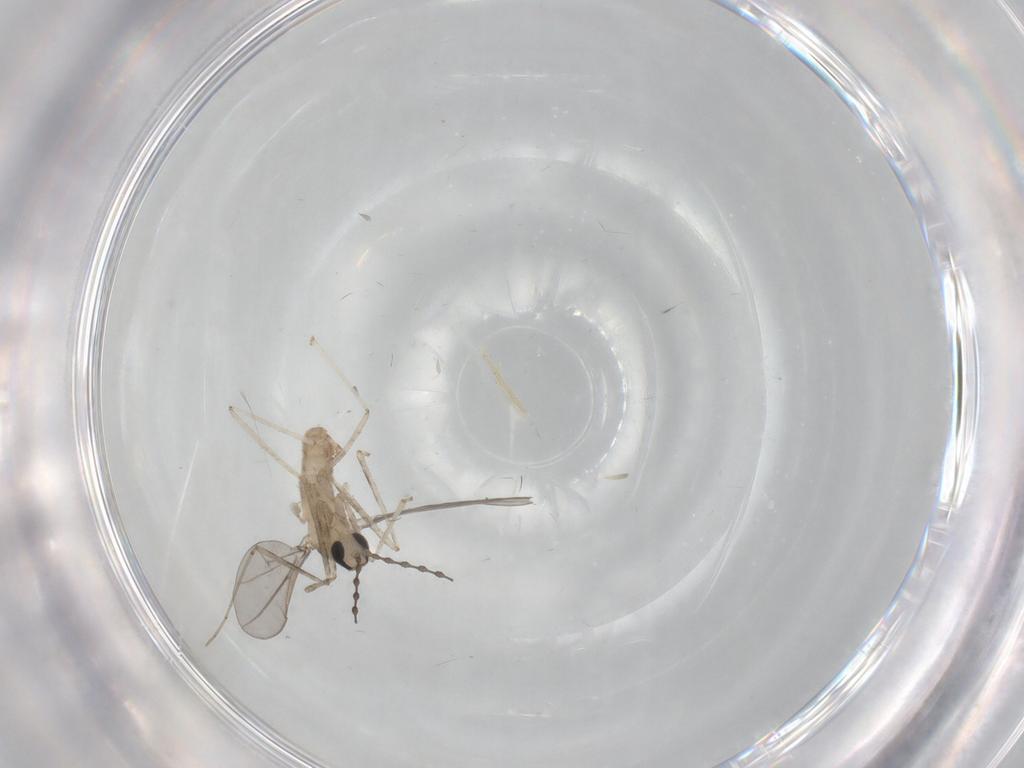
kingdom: Animalia
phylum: Arthropoda
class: Insecta
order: Diptera
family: Cecidomyiidae
